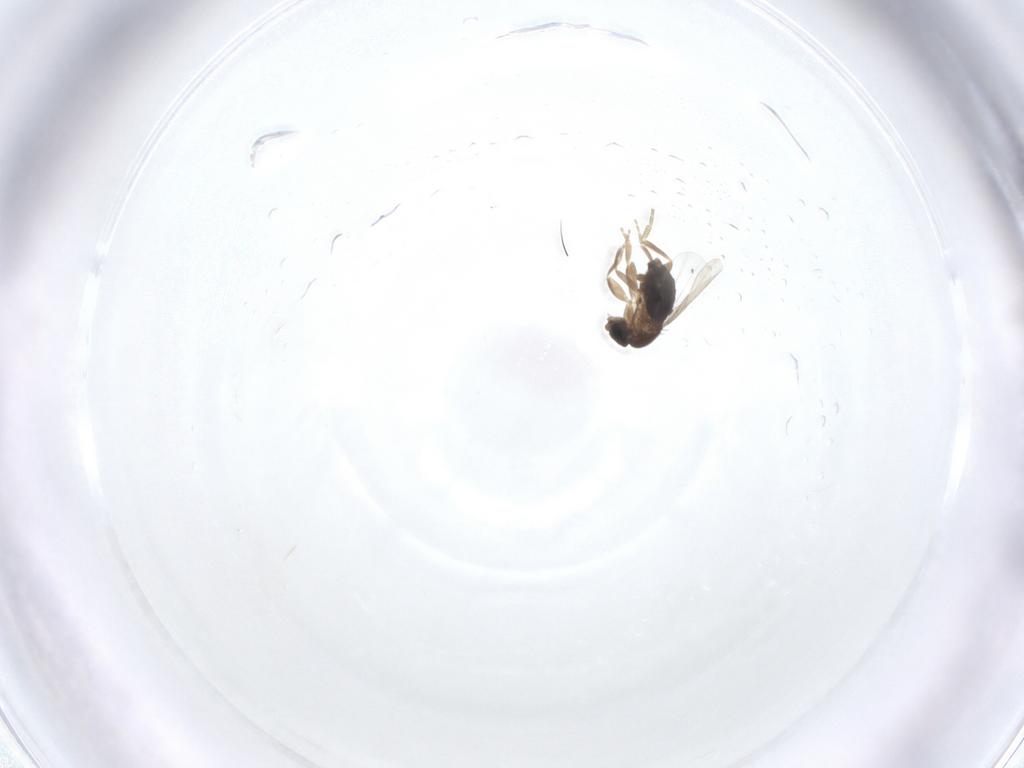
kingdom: Animalia
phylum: Arthropoda
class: Insecta
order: Diptera
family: Phoridae
